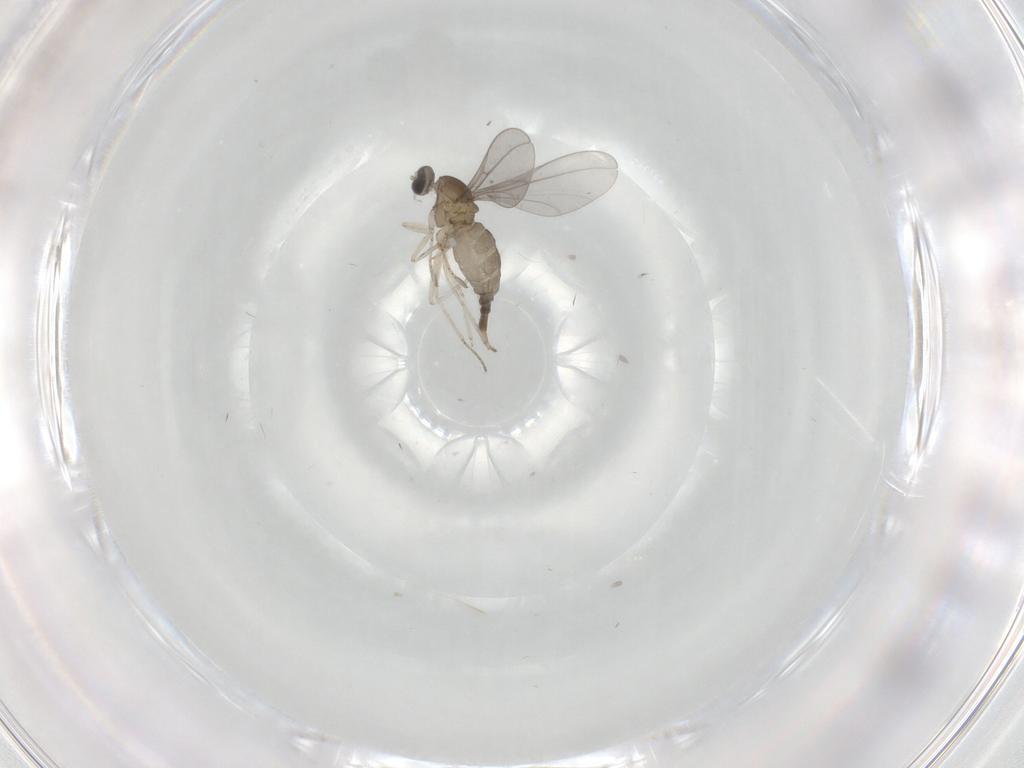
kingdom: Animalia
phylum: Arthropoda
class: Insecta
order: Diptera
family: Cecidomyiidae
